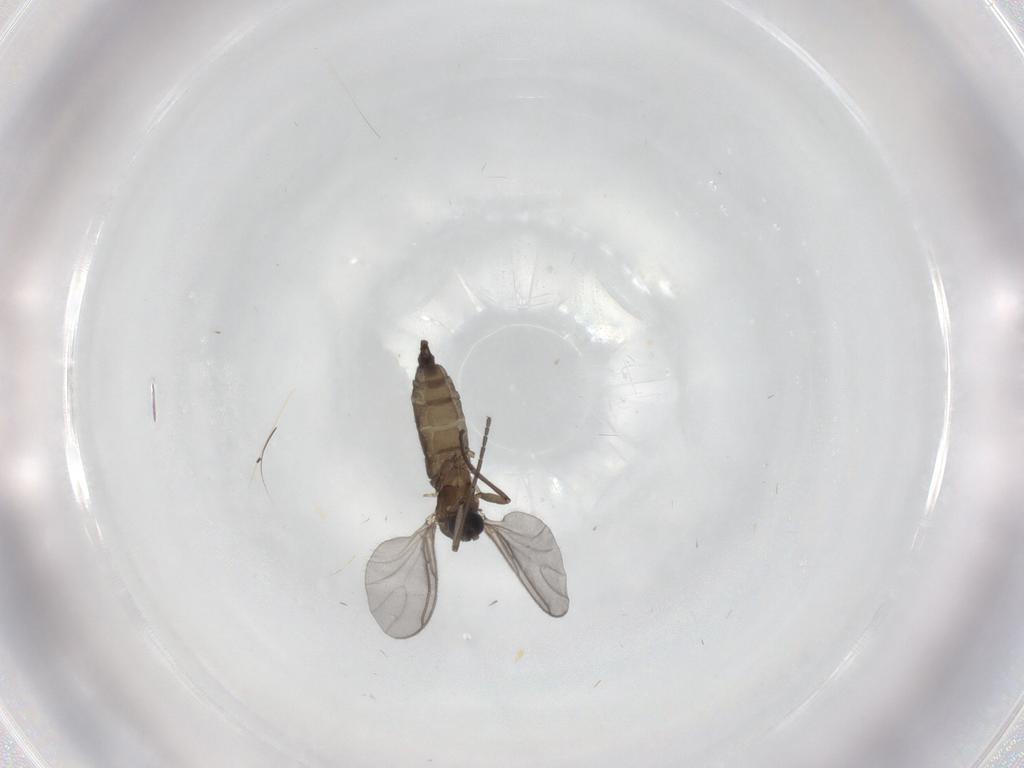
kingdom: Animalia
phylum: Arthropoda
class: Insecta
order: Diptera
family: Sciaridae
